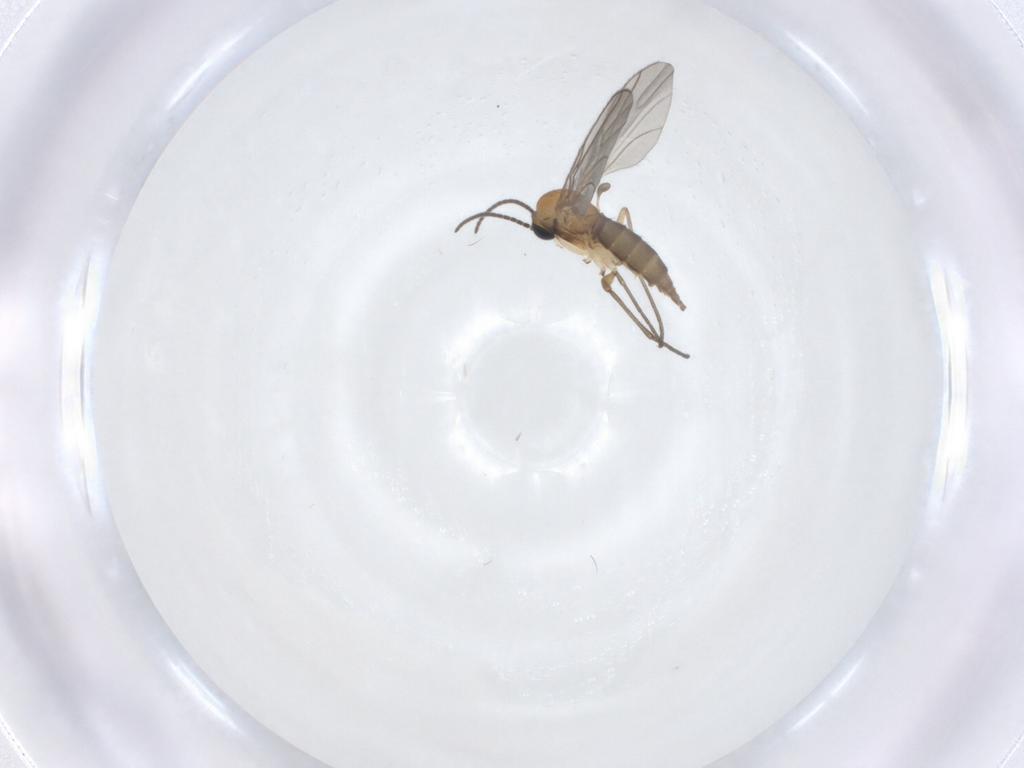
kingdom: Animalia
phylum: Arthropoda
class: Insecta
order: Diptera
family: Sciaridae
